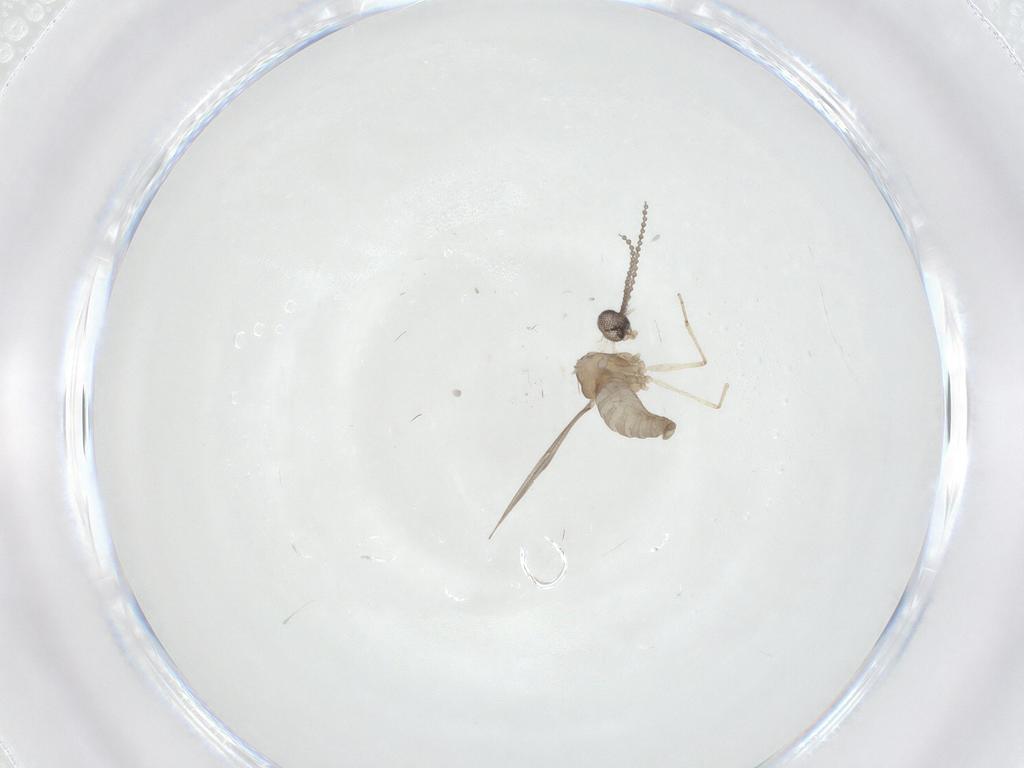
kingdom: Animalia
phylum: Arthropoda
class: Insecta
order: Diptera
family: Cecidomyiidae
